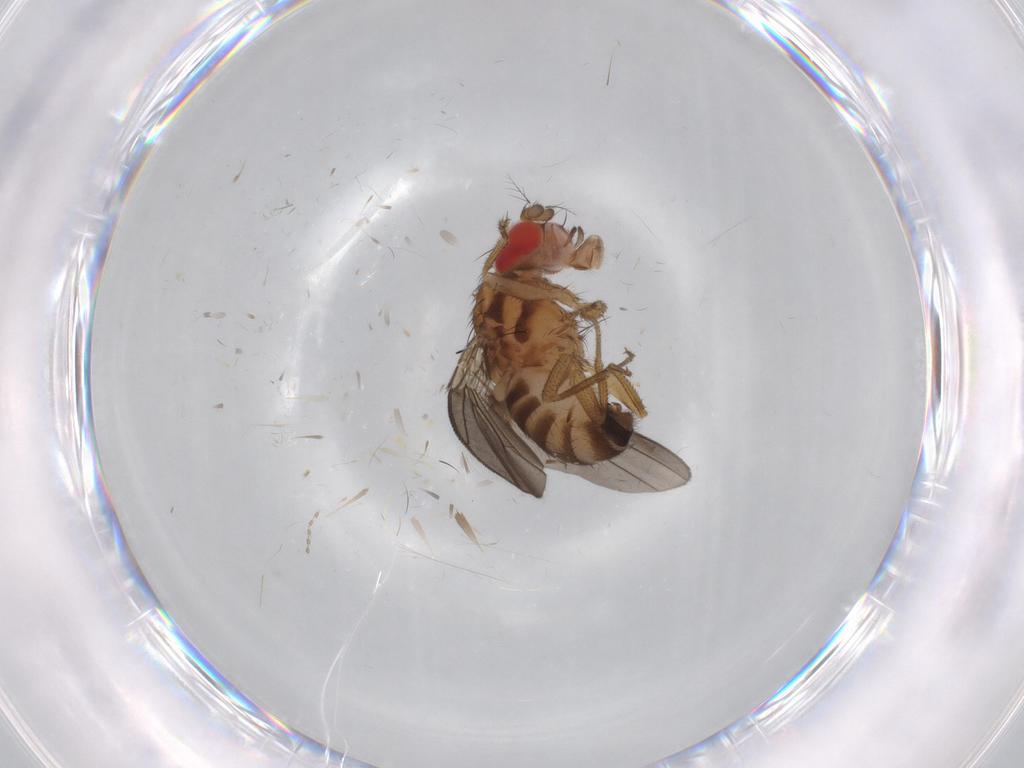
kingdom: Animalia
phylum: Arthropoda
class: Insecta
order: Diptera
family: Drosophilidae
